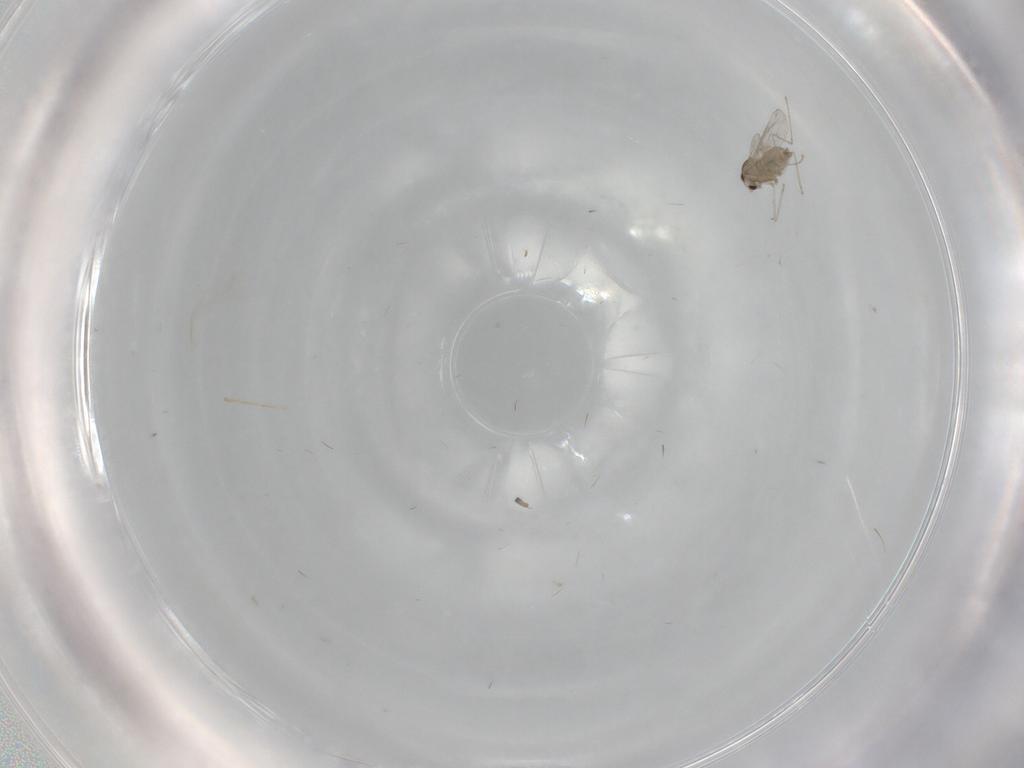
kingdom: Animalia
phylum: Arthropoda
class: Insecta
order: Diptera
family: Cecidomyiidae
